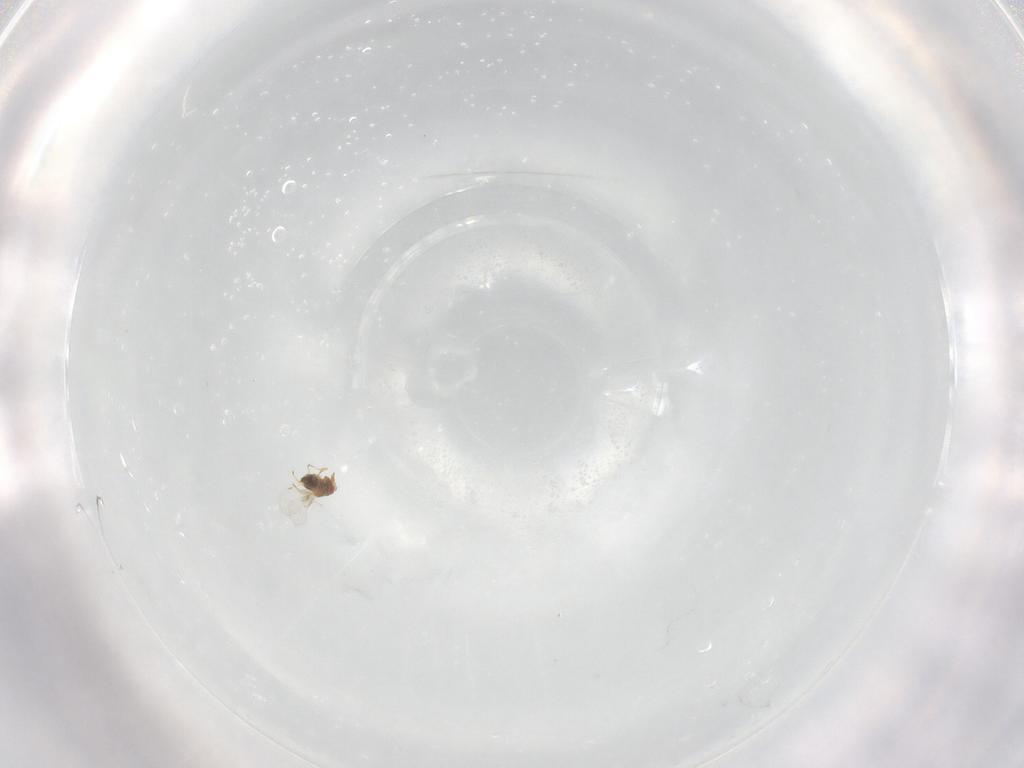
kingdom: Animalia
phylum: Arthropoda
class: Insecta
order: Hymenoptera
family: Trichogrammatidae
